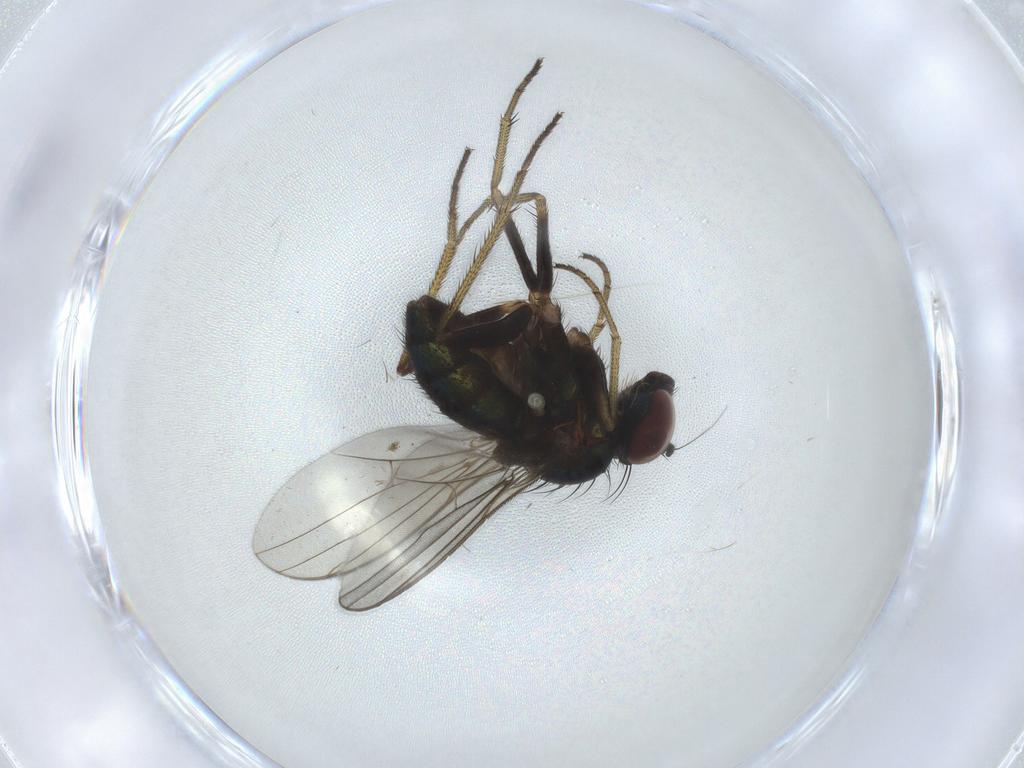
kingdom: Animalia
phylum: Arthropoda
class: Insecta
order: Diptera
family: Dolichopodidae
